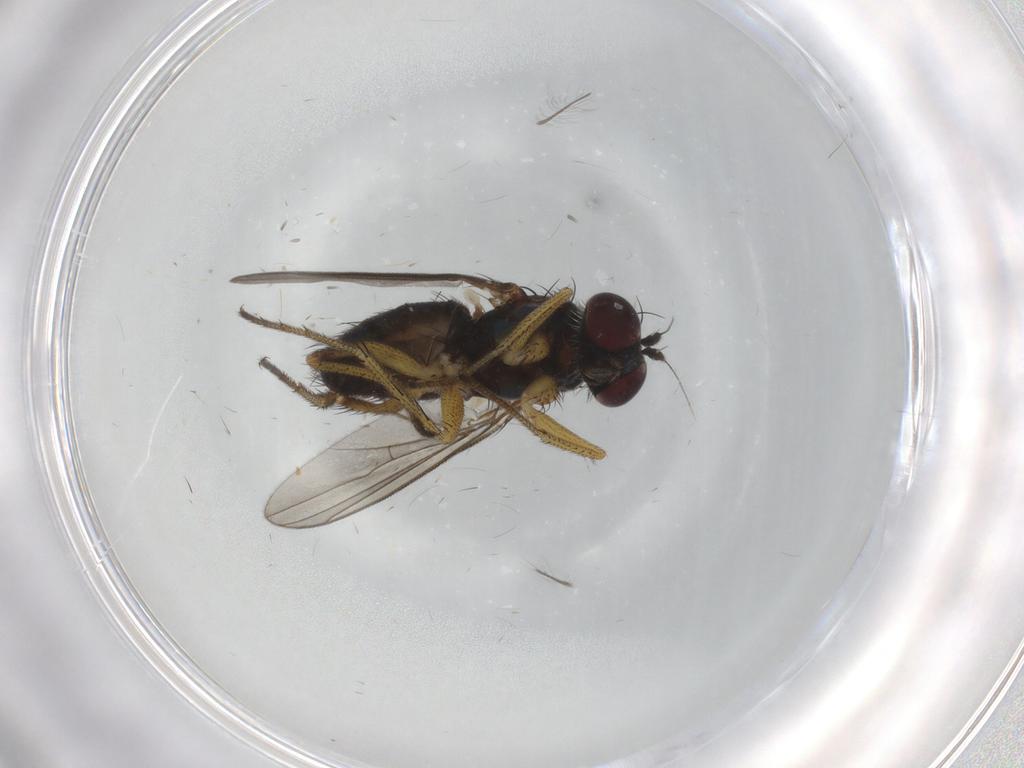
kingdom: Animalia
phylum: Arthropoda
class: Insecta
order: Diptera
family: Dolichopodidae
